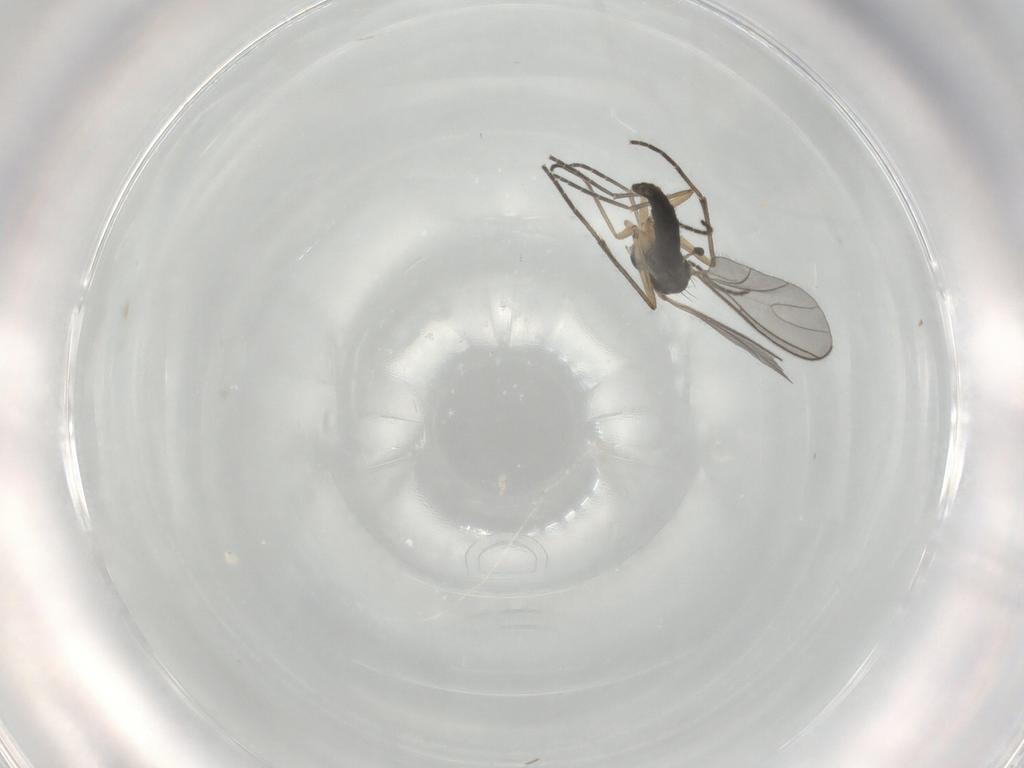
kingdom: Animalia
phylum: Arthropoda
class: Insecta
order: Diptera
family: Sciaridae
